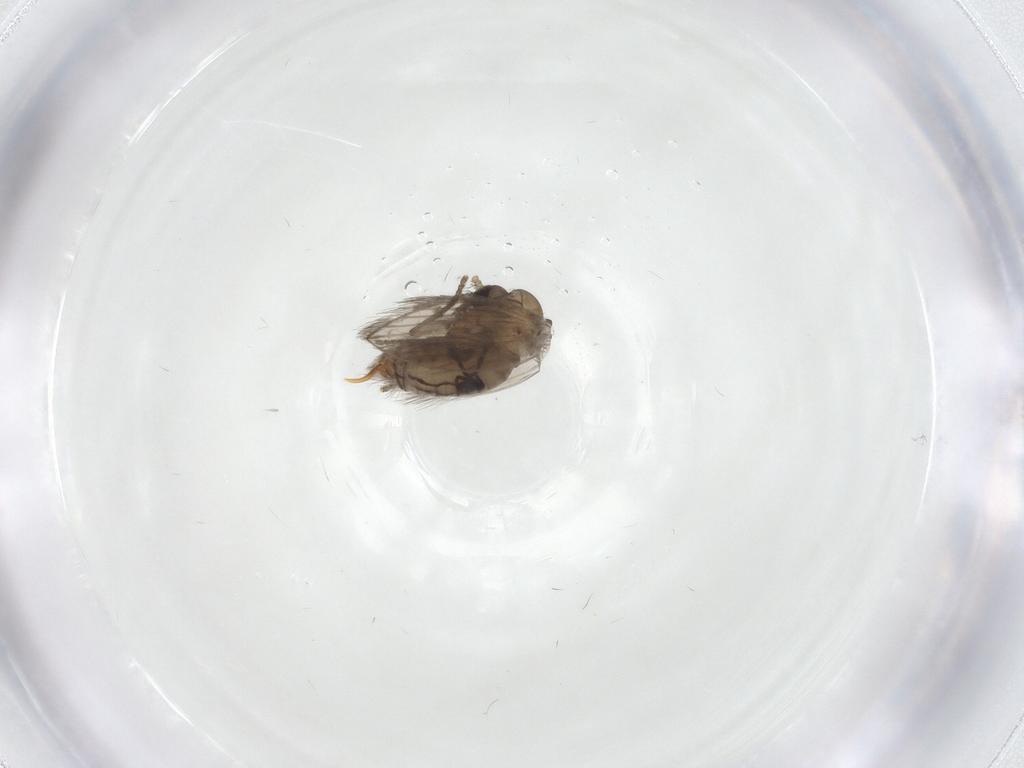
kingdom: Animalia
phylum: Arthropoda
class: Insecta
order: Diptera
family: Psychodidae
